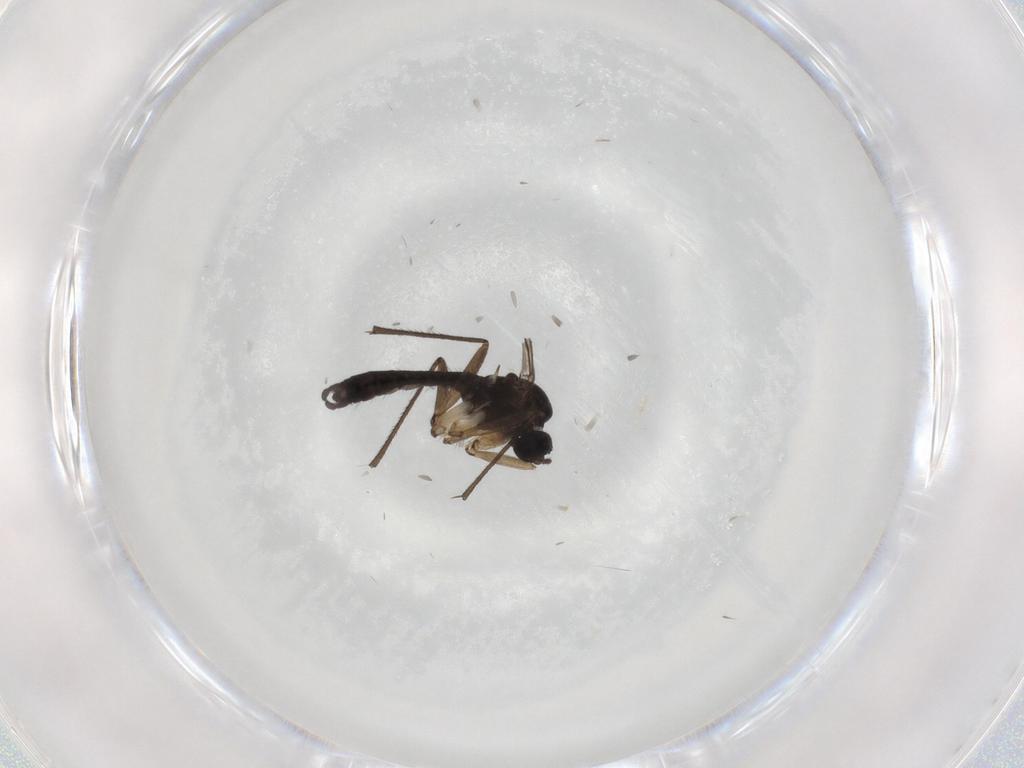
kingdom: Animalia
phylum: Arthropoda
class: Insecta
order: Diptera
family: Sciaridae
